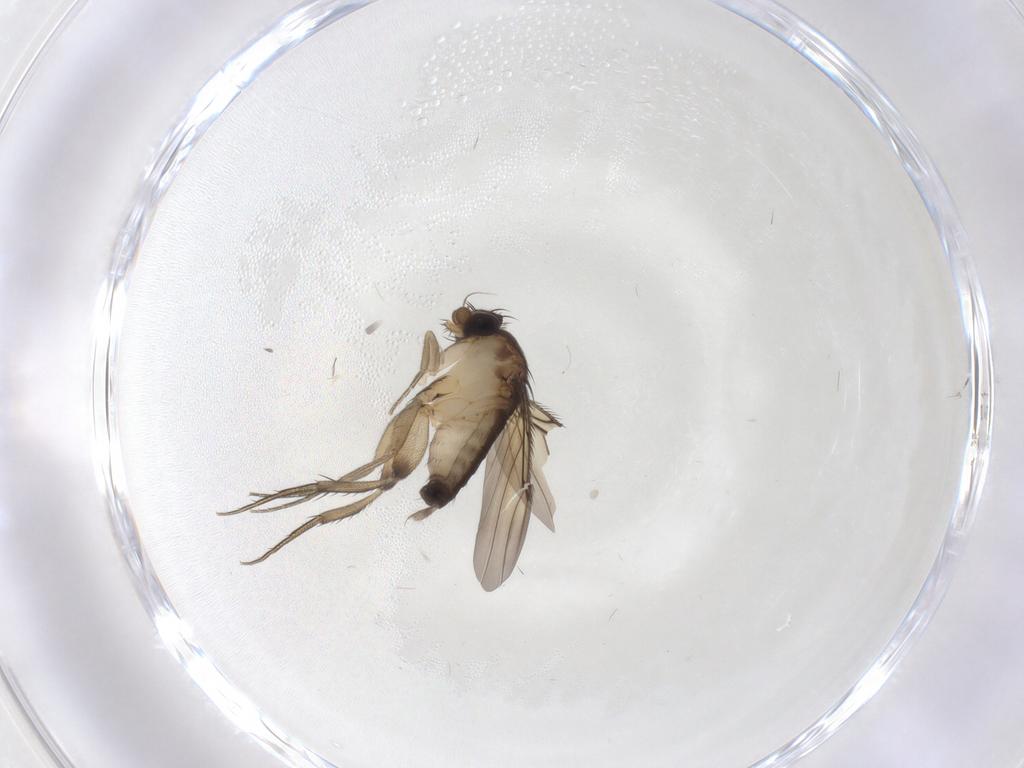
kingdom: Animalia
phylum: Arthropoda
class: Insecta
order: Diptera
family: Phoridae
